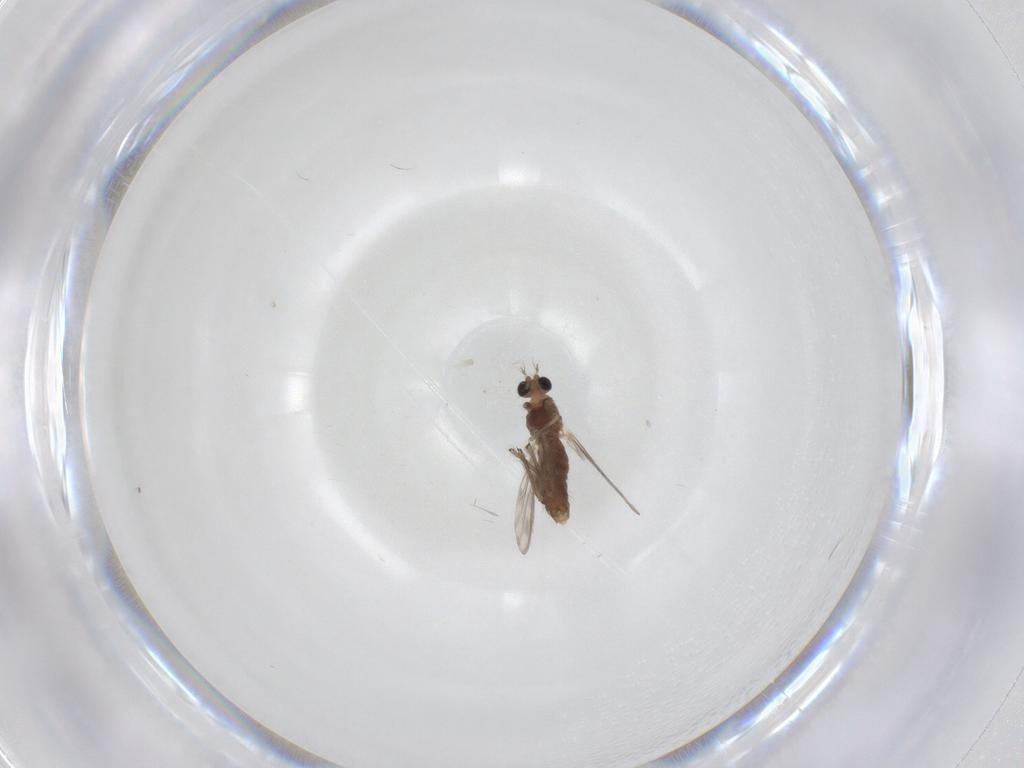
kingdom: Animalia
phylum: Arthropoda
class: Insecta
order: Diptera
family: Chironomidae
